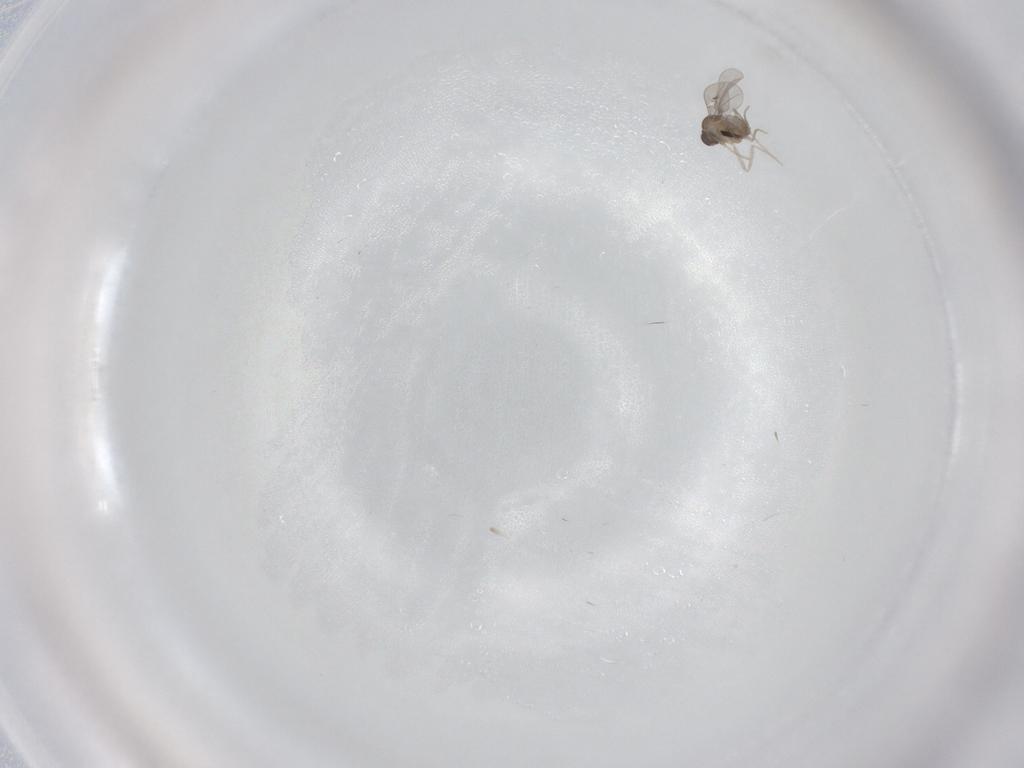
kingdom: Animalia
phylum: Arthropoda
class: Insecta
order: Diptera
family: Cecidomyiidae
